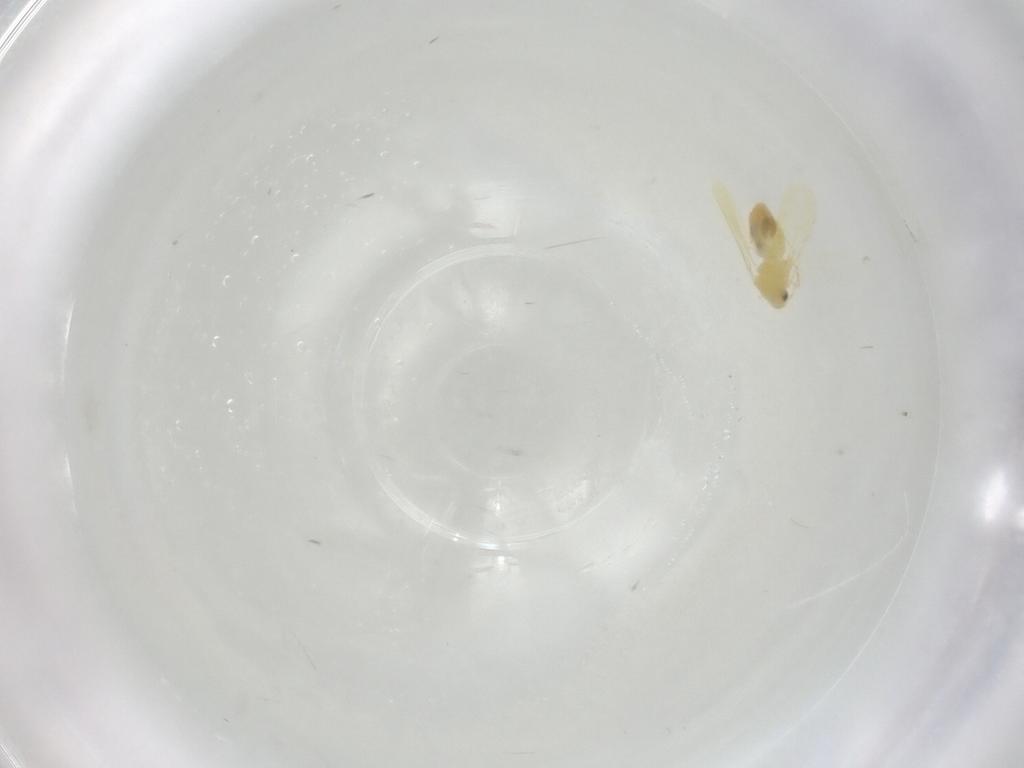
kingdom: Animalia
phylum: Arthropoda
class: Insecta
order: Hemiptera
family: Aleyrodidae
